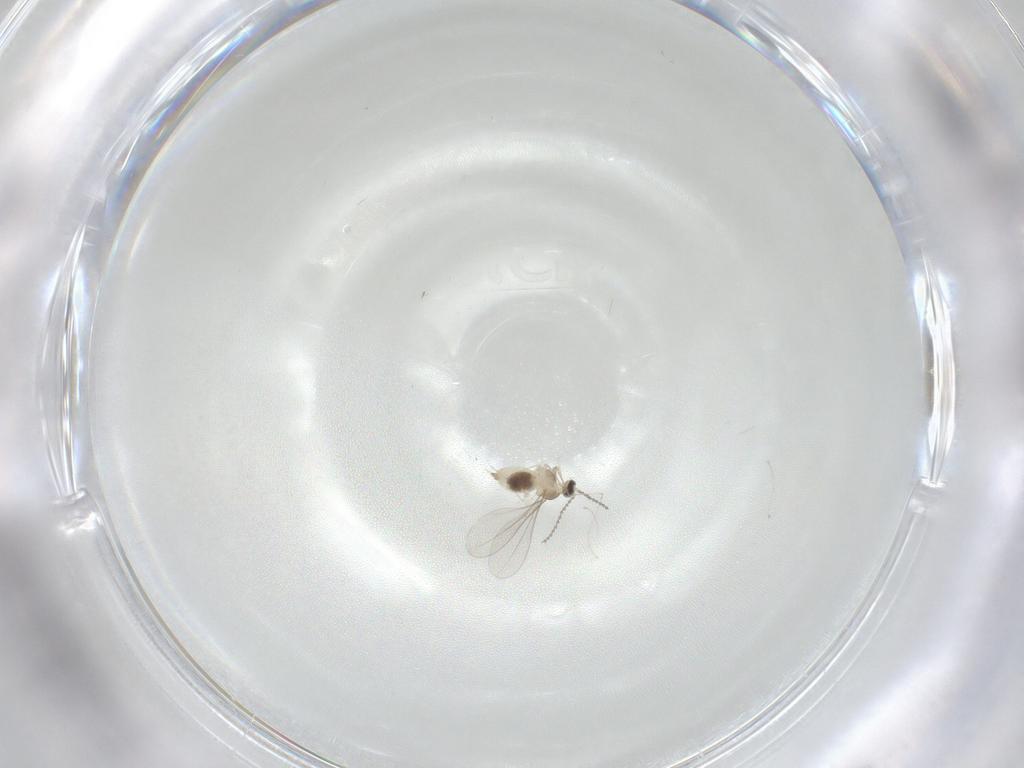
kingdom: Animalia
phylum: Arthropoda
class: Insecta
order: Diptera
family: Cecidomyiidae
